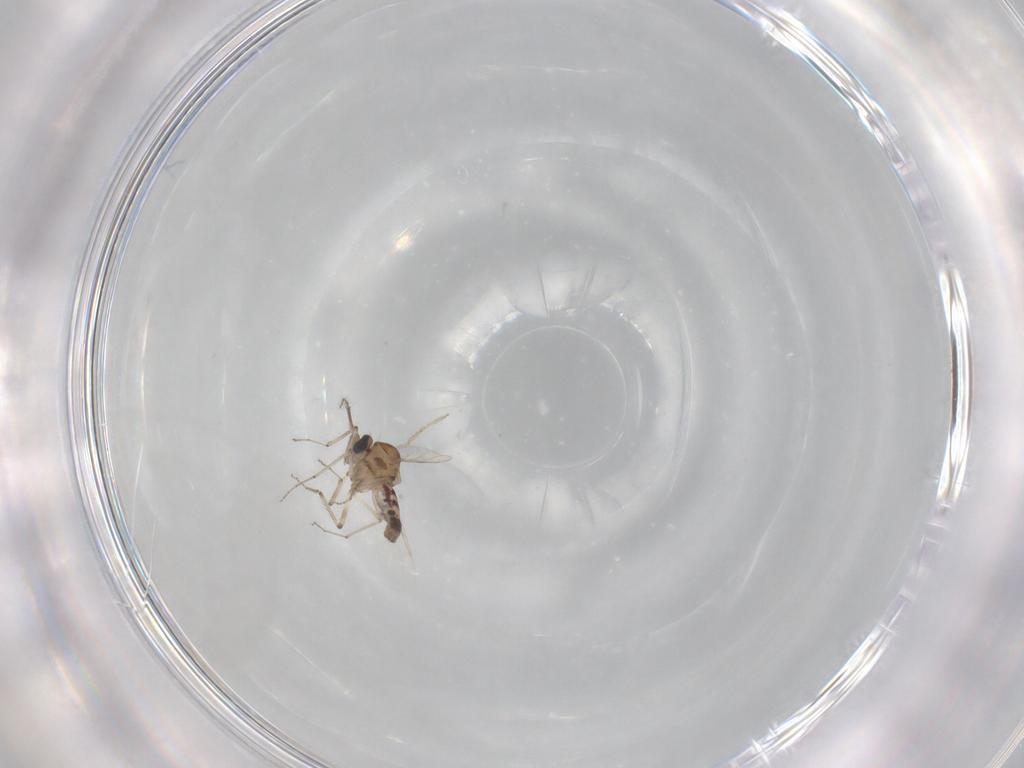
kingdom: Animalia
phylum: Arthropoda
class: Insecta
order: Diptera
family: Ceratopogonidae
